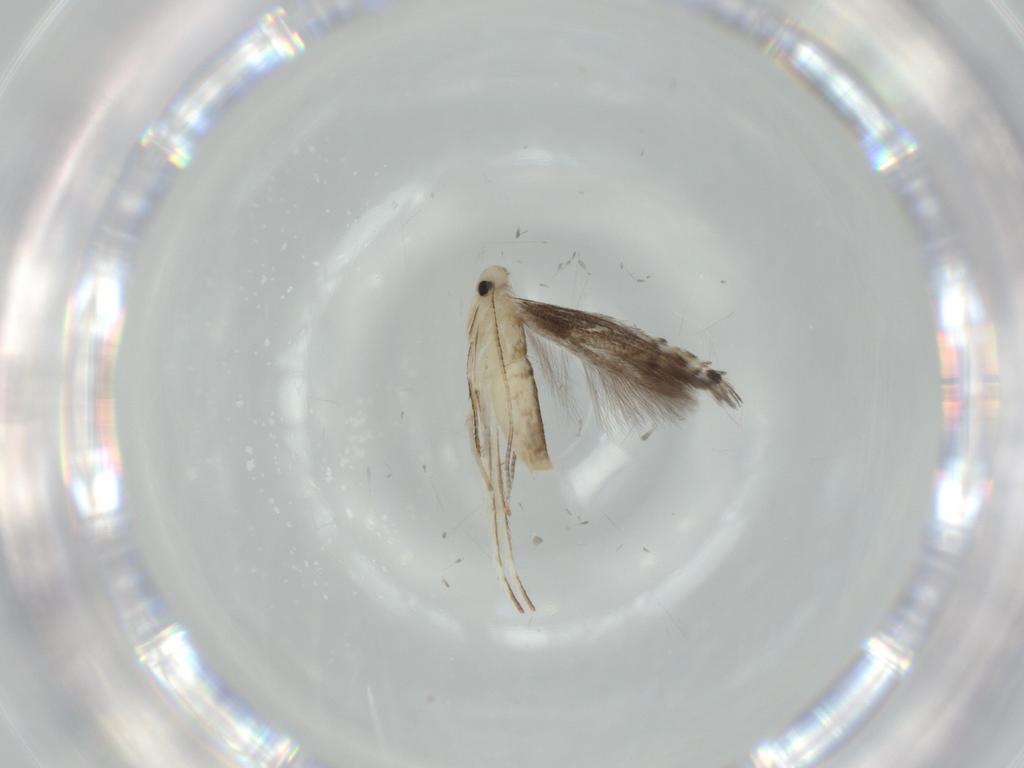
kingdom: Animalia
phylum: Arthropoda
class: Insecta
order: Lepidoptera
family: Gracillariidae
